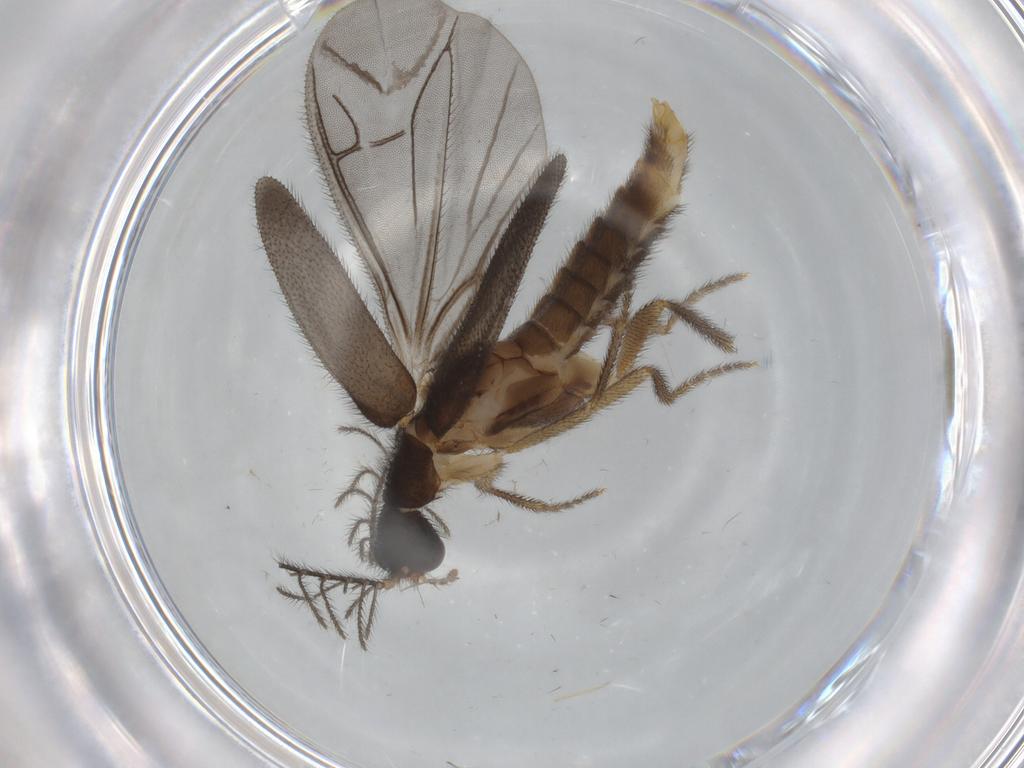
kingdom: Animalia
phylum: Arthropoda
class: Insecta
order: Coleoptera
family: Phengodidae
